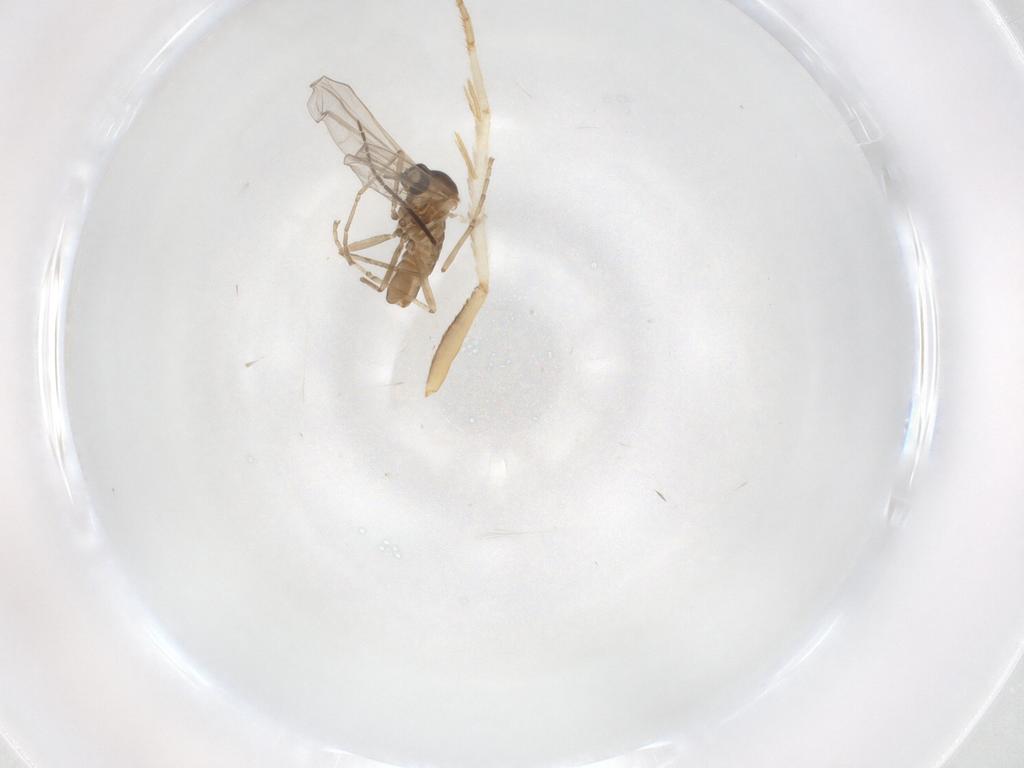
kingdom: Animalia
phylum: Arthropoda
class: Insecta
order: Diptera
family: Cecidomyiidae
